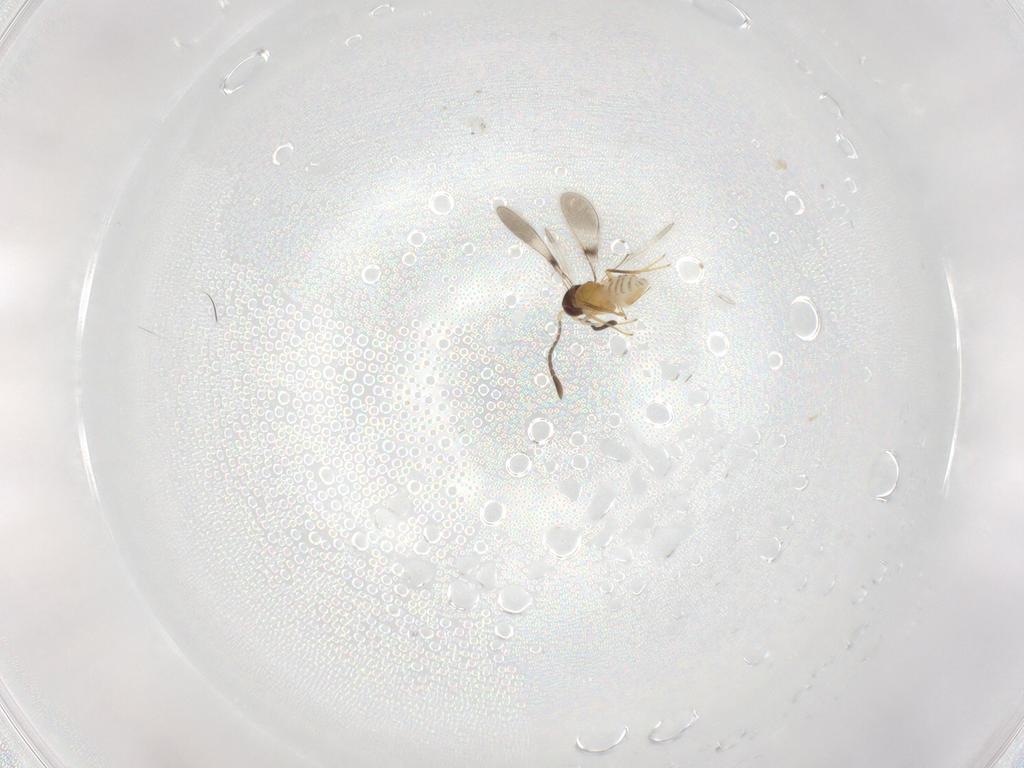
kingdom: Animalia
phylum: Arthropoda
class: Insecta
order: Hymenoptera
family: Mymaridae
